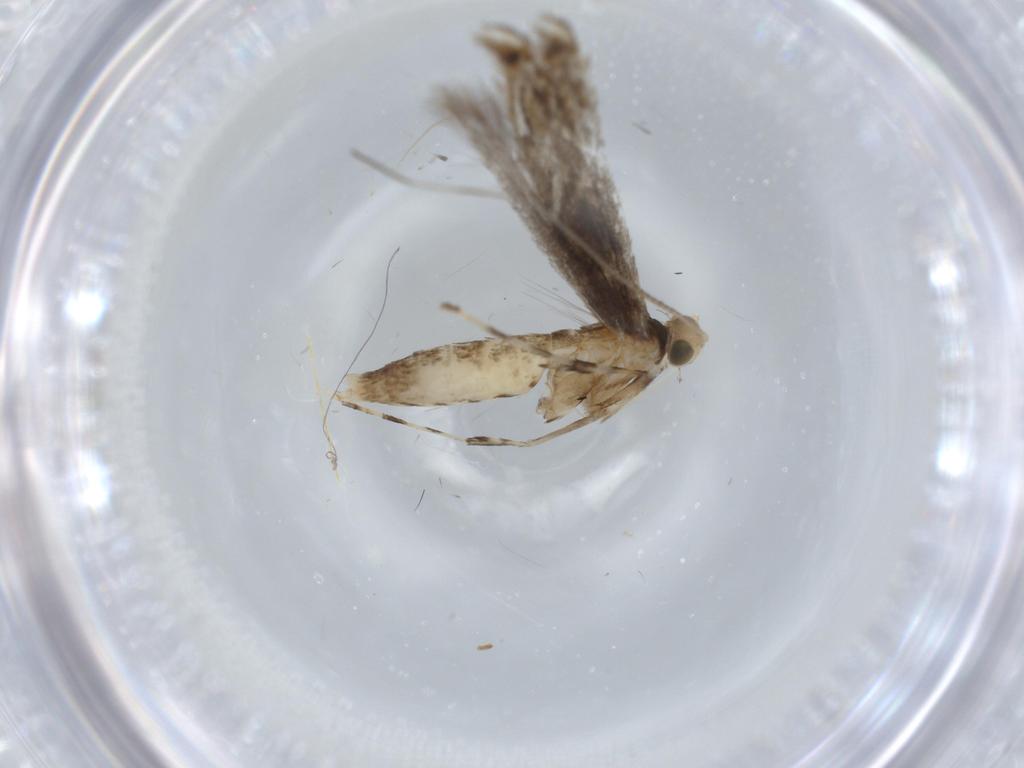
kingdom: Animalia
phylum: Arthropoda
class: Insecta
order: Lepidoptera
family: Gracillariidae
